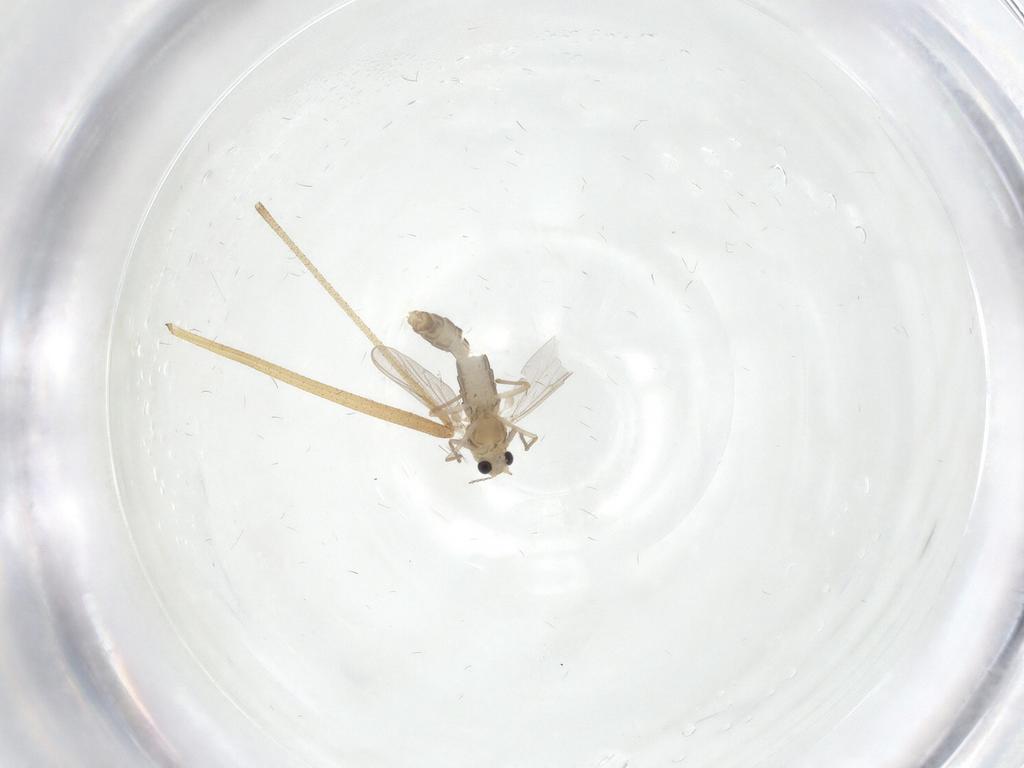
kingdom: Animalia
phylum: Arthropoda
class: Insecta
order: Diptera
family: Chironomidae
